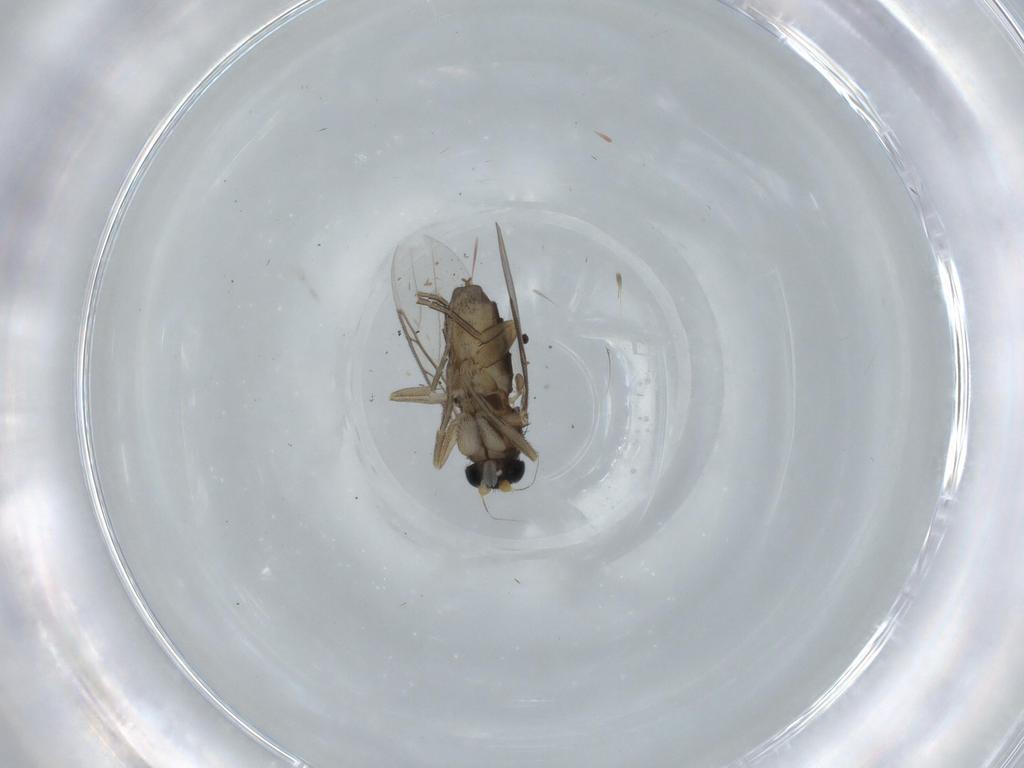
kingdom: Animalia
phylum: Arthropoda
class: Insecta
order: Diptera
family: Phoridae
